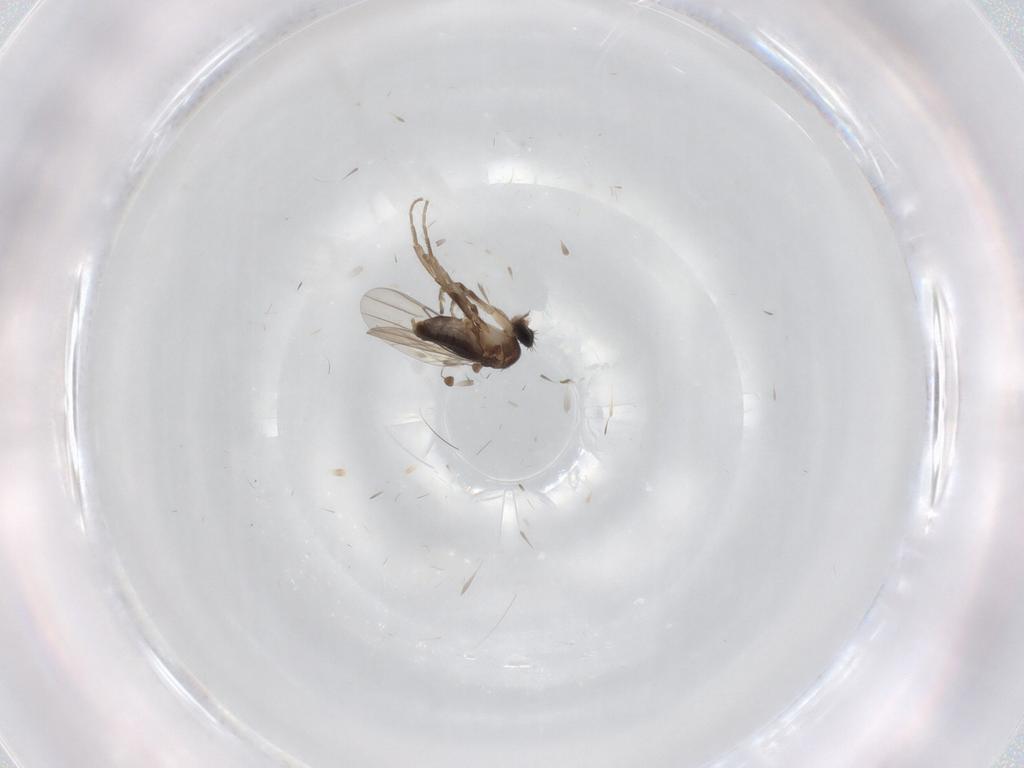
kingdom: Animalia
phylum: Arthropoda
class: Insecta
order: Diptera
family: Phoridae
